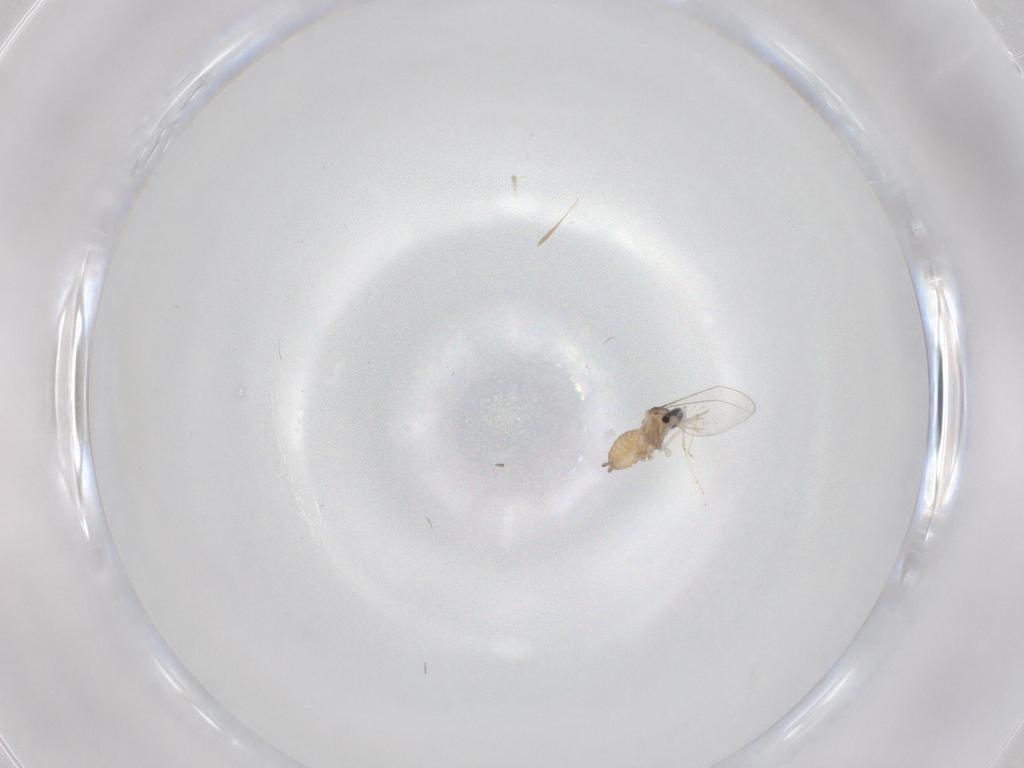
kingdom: Animalia
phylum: Arthropoda
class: Insecta
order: Diptera
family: Cecidomyiidae
